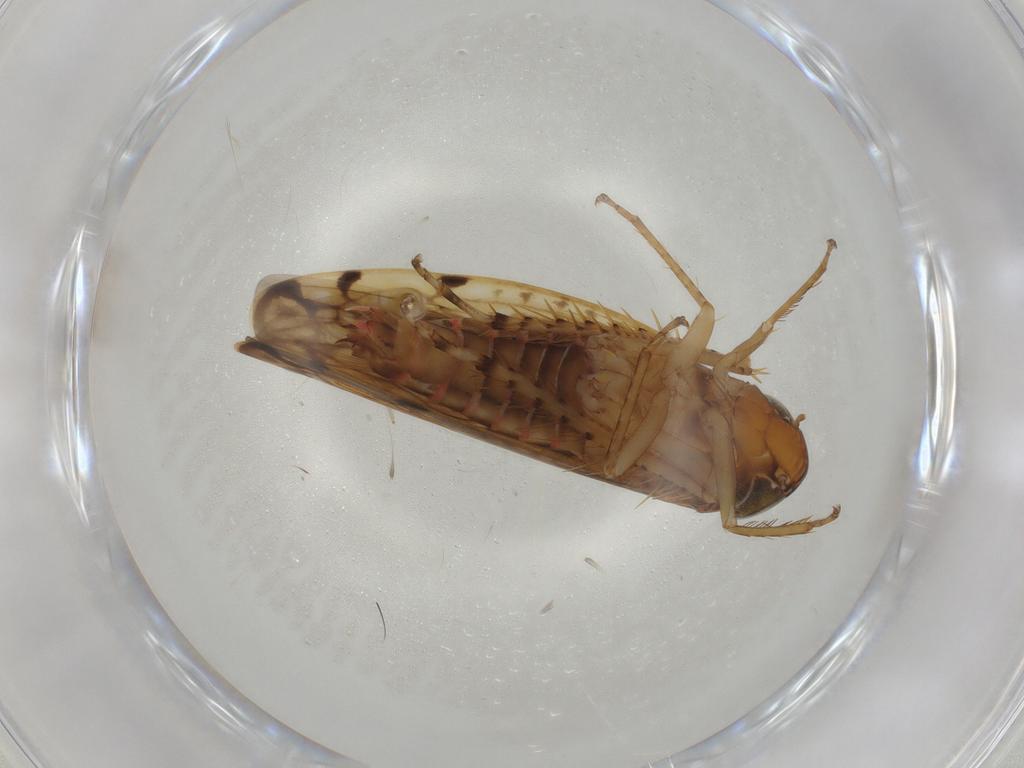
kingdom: Animalia
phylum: Arthropoda
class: Insecta
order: Hemiptera
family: Cicadellidae
